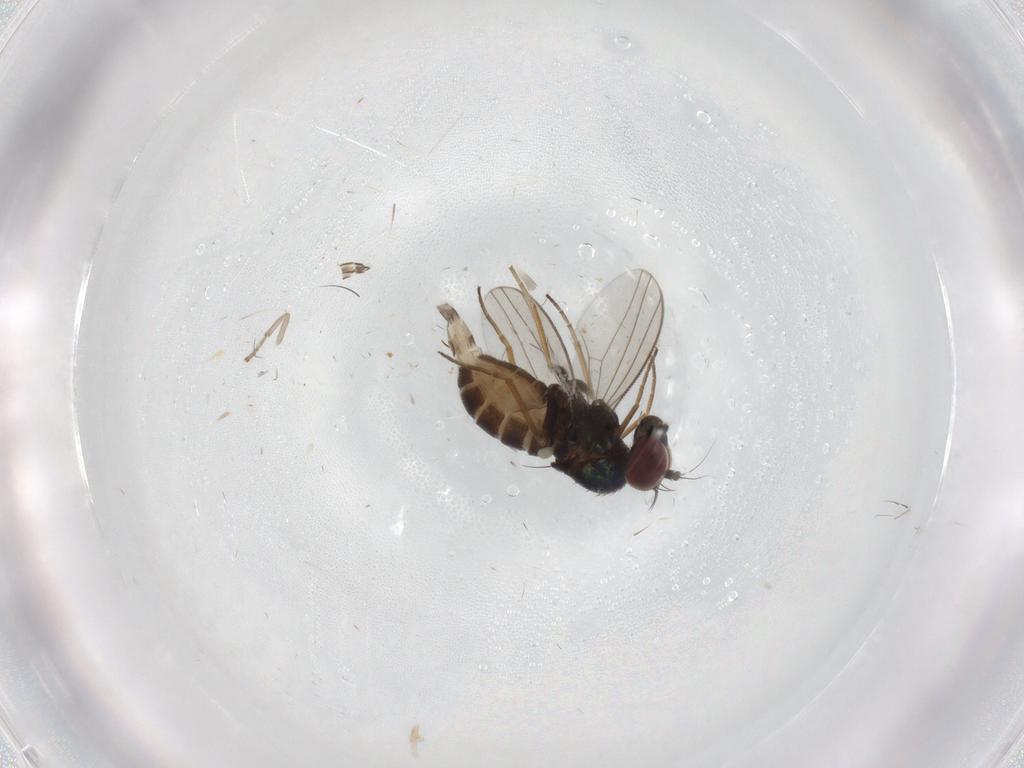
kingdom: Animalia
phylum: Arthropoda
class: Insecta
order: Diptera
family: Dolichopodidae
